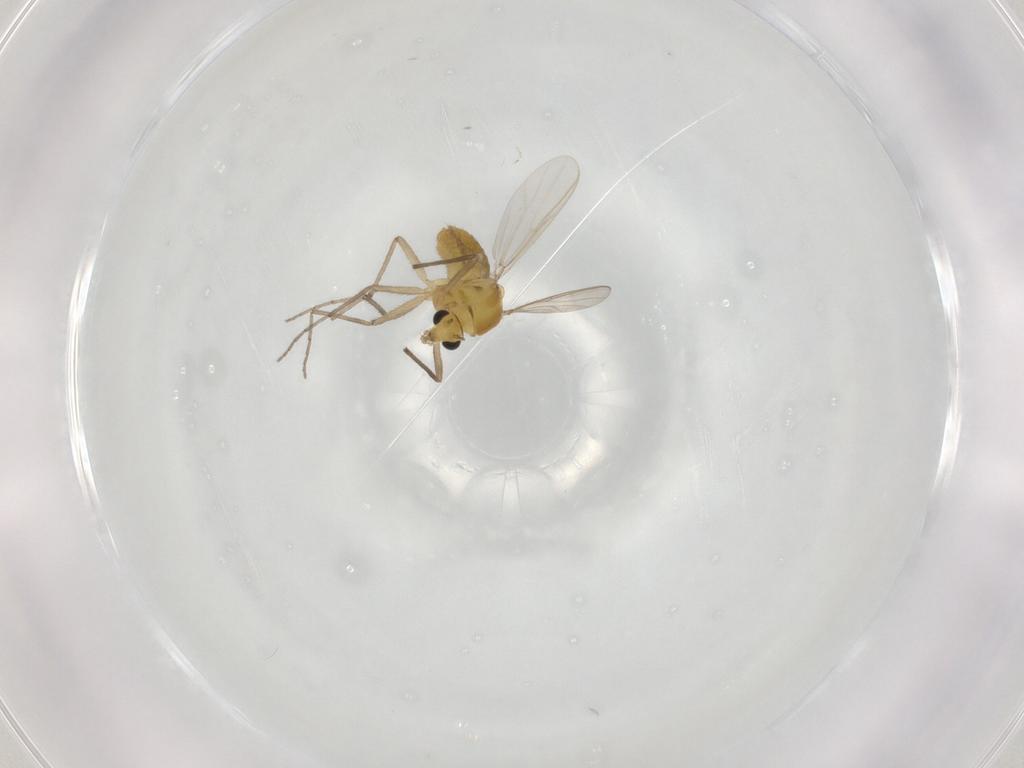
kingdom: Animalia
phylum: Arthropoda
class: Insecta
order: Diptera
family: Chironomidae
